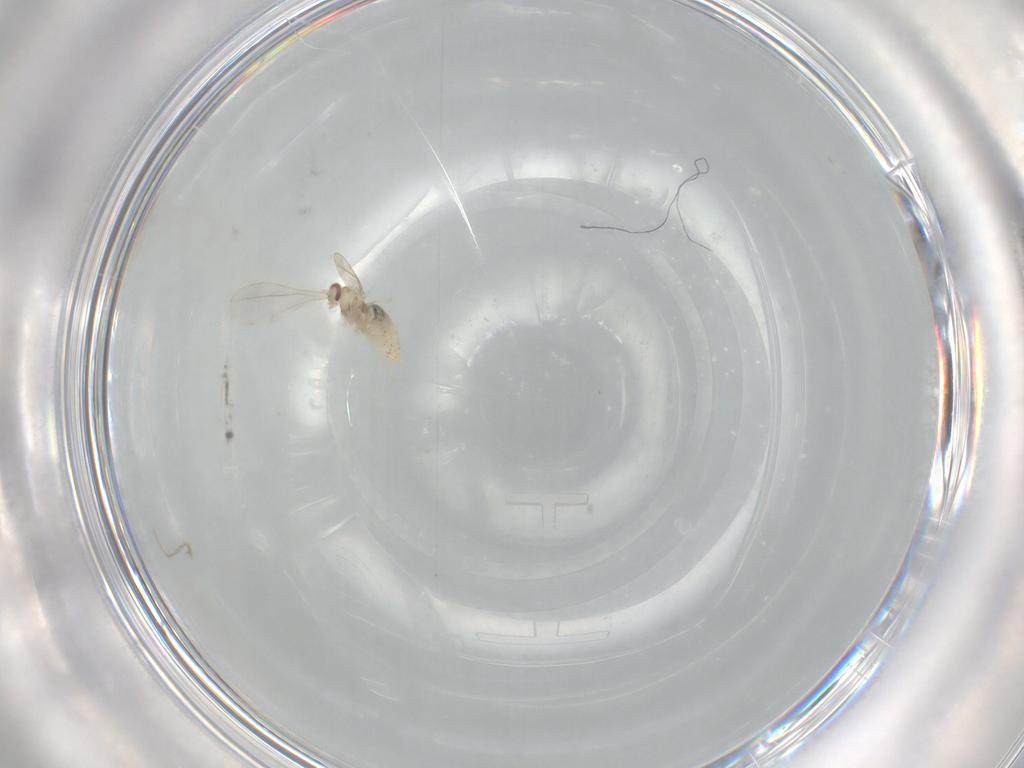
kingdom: Animalia
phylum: Arthropoda
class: Insecta
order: Diptera
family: Cecidomyiidae
